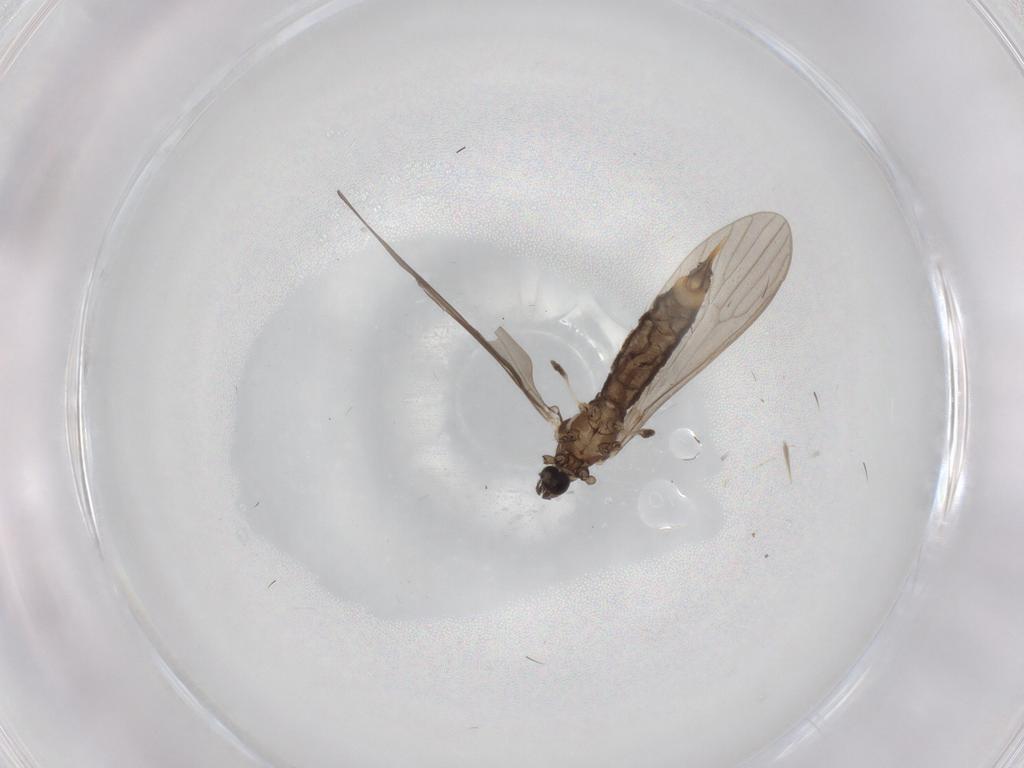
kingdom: Animalia
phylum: Arthropoda
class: Insecta
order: Diptera
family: Limoniidae
